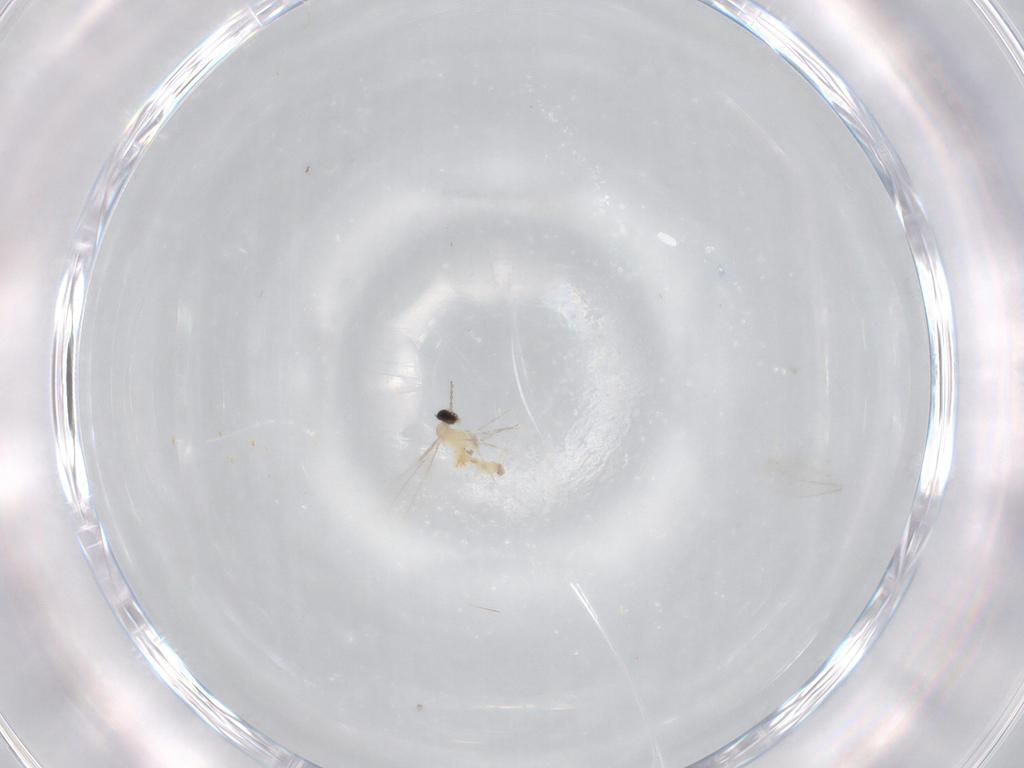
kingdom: Animalia
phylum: Arthropoda
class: Insecta
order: Diptera
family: Cecidomyiidae
